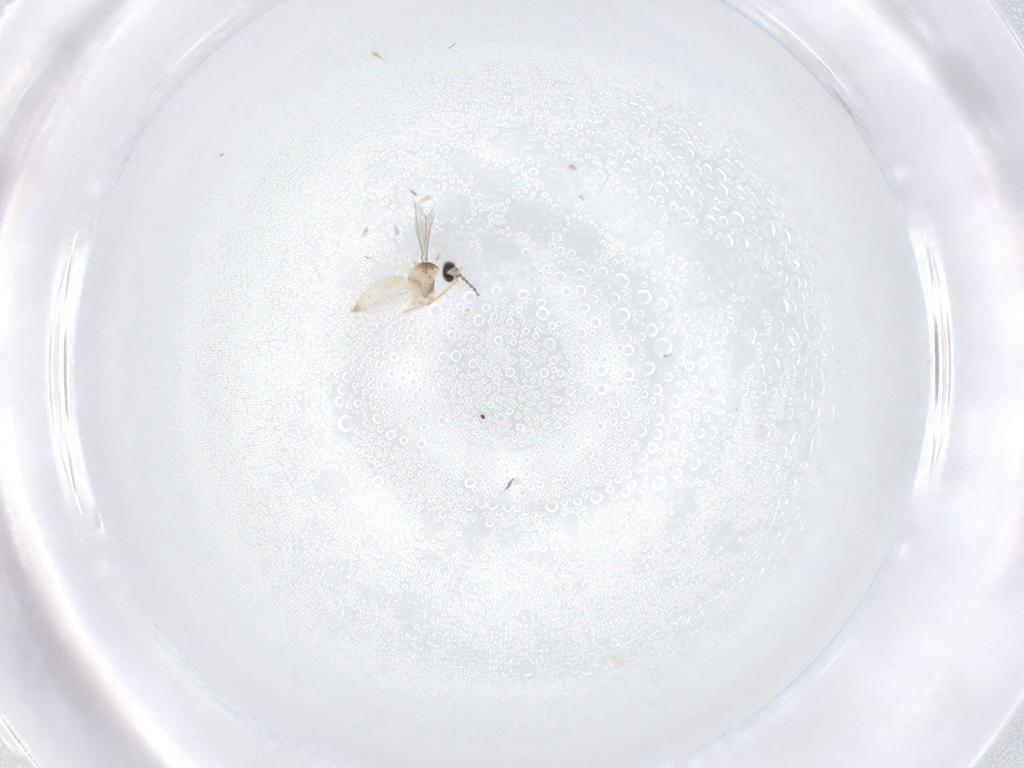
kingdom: Animalia
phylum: Arthropoda
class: Insecta
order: Diptera
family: Cecidomyiidae
